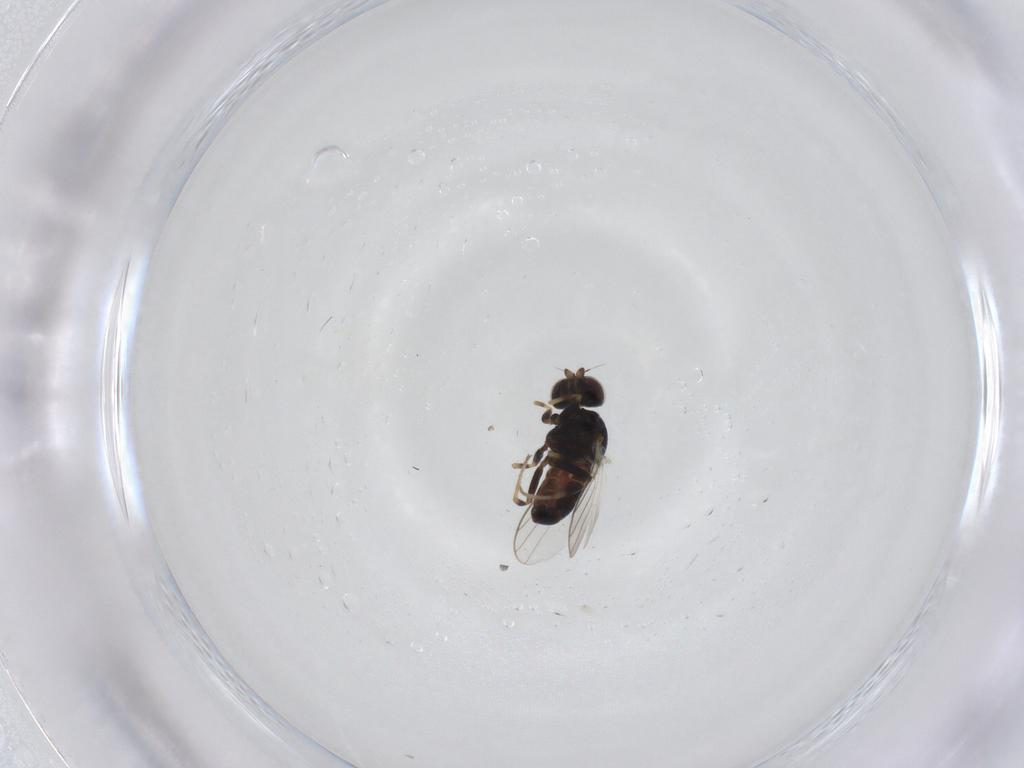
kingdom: Animalia
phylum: Arthropoda
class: Insecta
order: Diptera
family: Chloropidae
